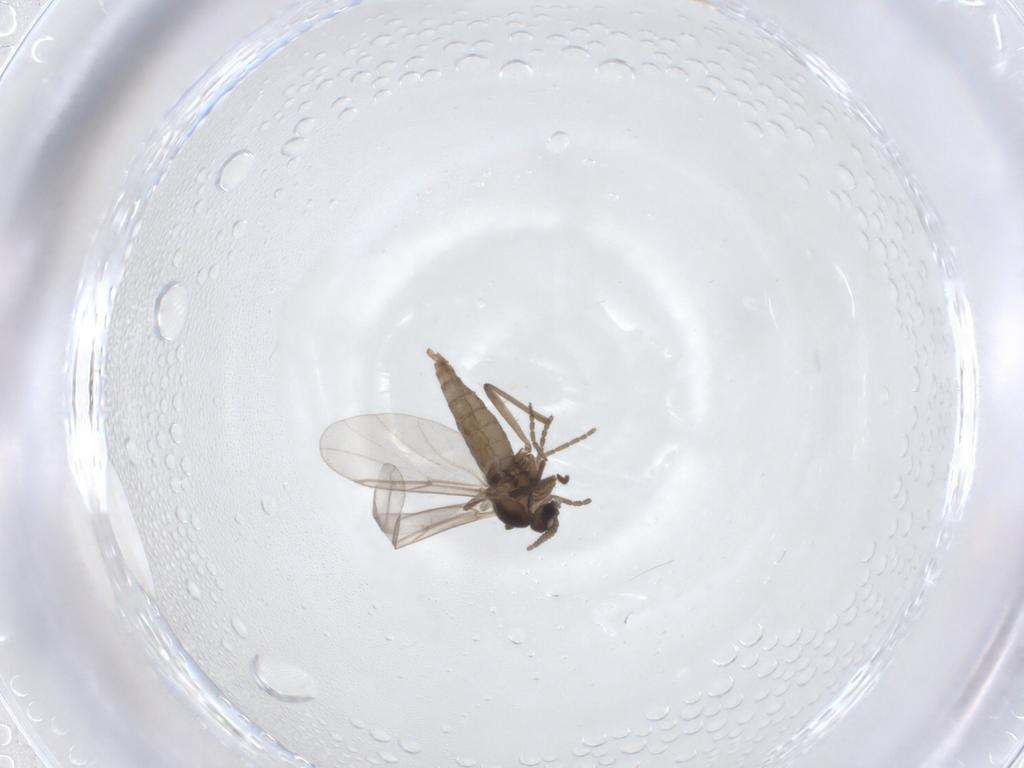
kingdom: Animalia
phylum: Arthropoda
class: Insecta
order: Diptera
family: Cecidomyiidae
